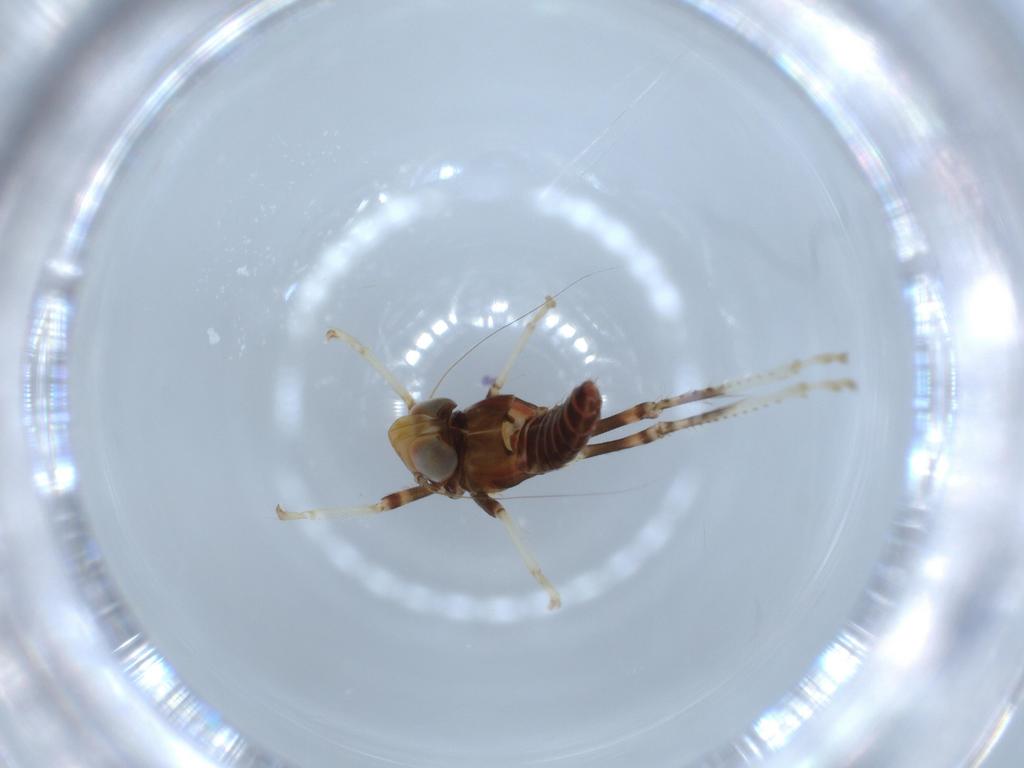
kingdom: Animalia
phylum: Arthropoda
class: Insecta
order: Hemiptera
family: Cicadellidae
